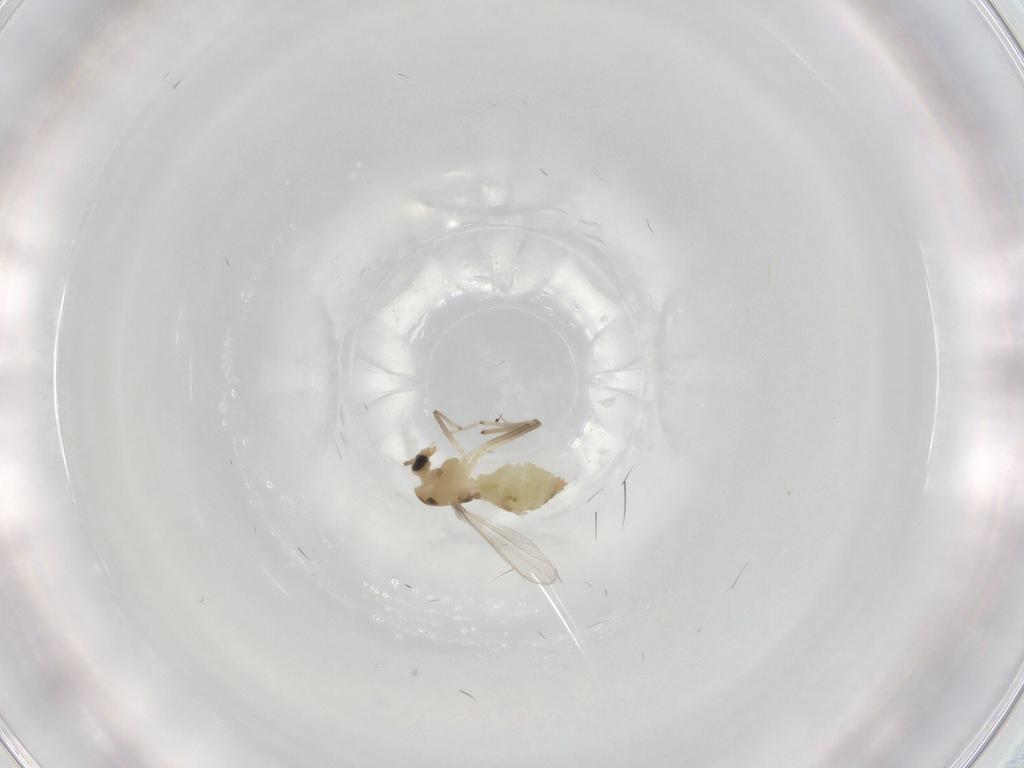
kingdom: Animalia
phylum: Arthropoda
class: Insecta
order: Diptera
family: Chironomidae
